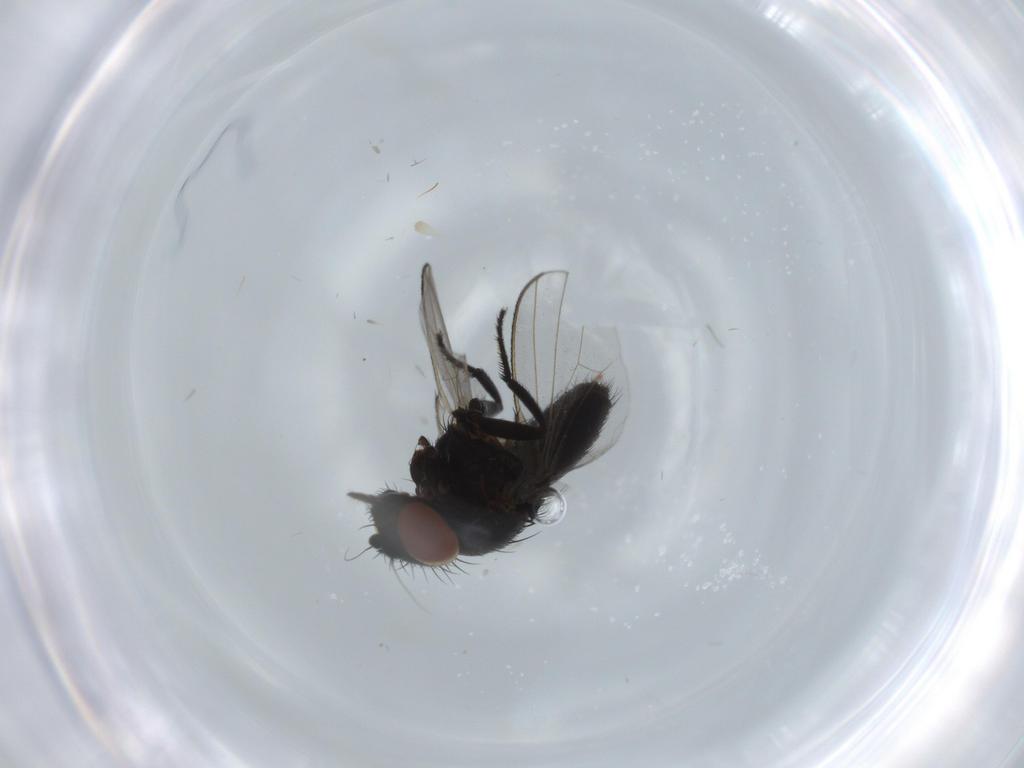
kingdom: Animalia
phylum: Arthropoda
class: Insecta
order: Diptera
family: Milichiidae
